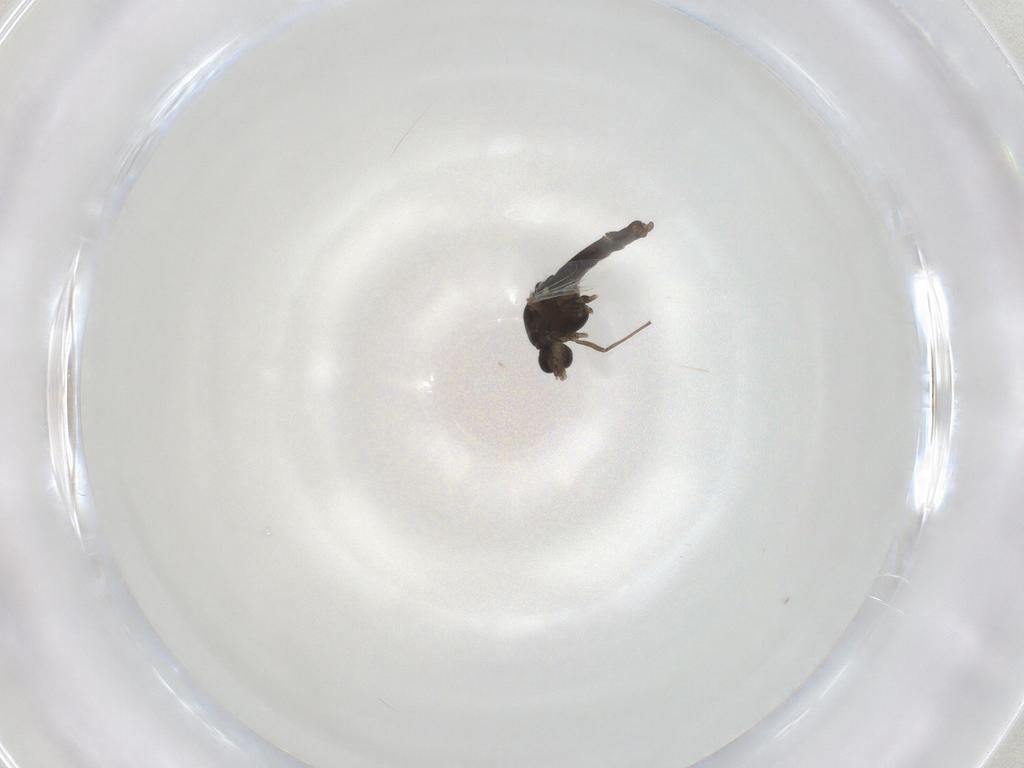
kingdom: Animalia
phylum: Arthropoda
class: Insecta
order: Diptera
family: Chironomidae
